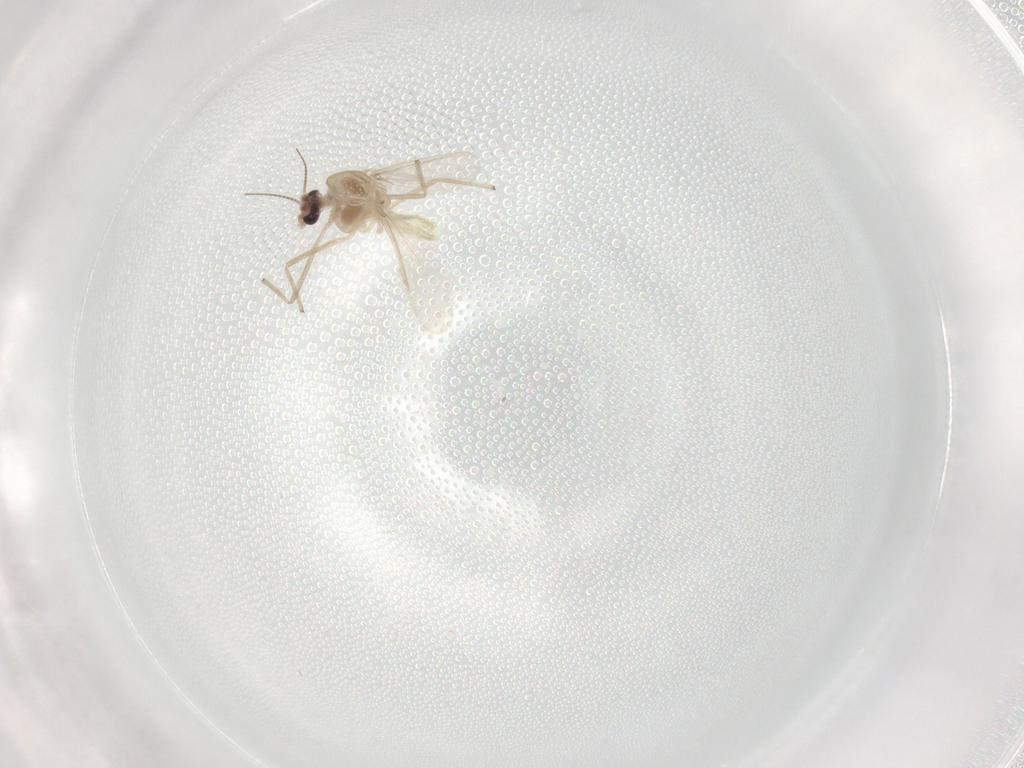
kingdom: Animalia
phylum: Arthropoda
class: Insecta
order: Diptera
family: Chironomidae
